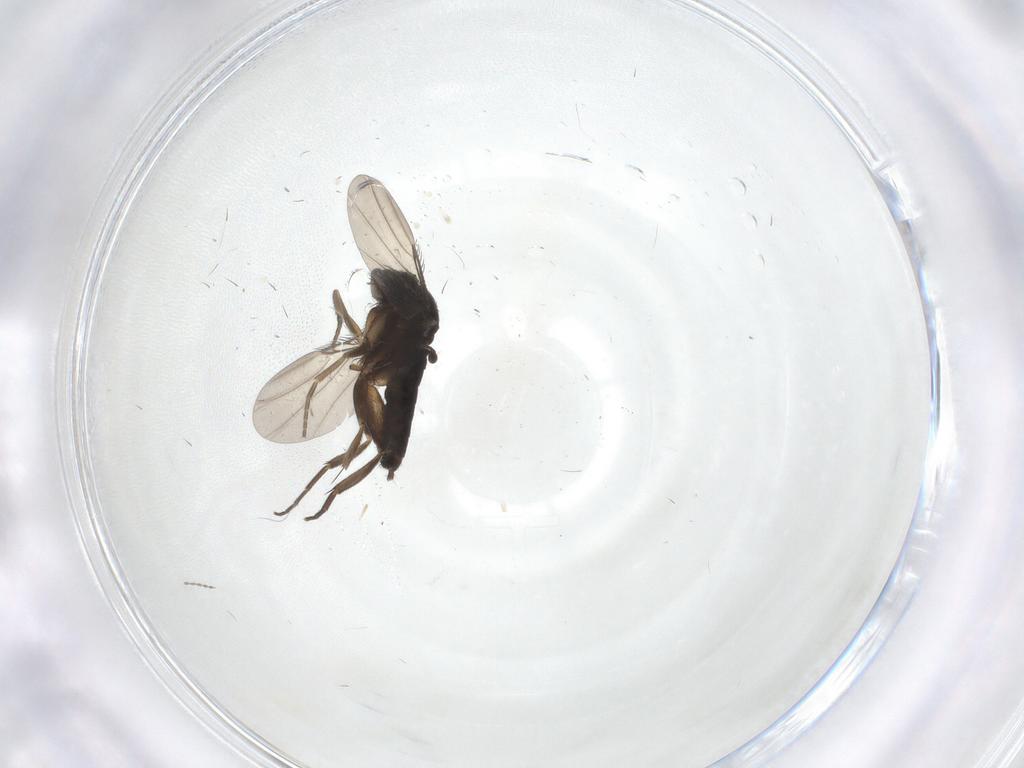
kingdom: Animalia
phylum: Arthropoda
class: Insecta
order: Diptera
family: Phoridae
